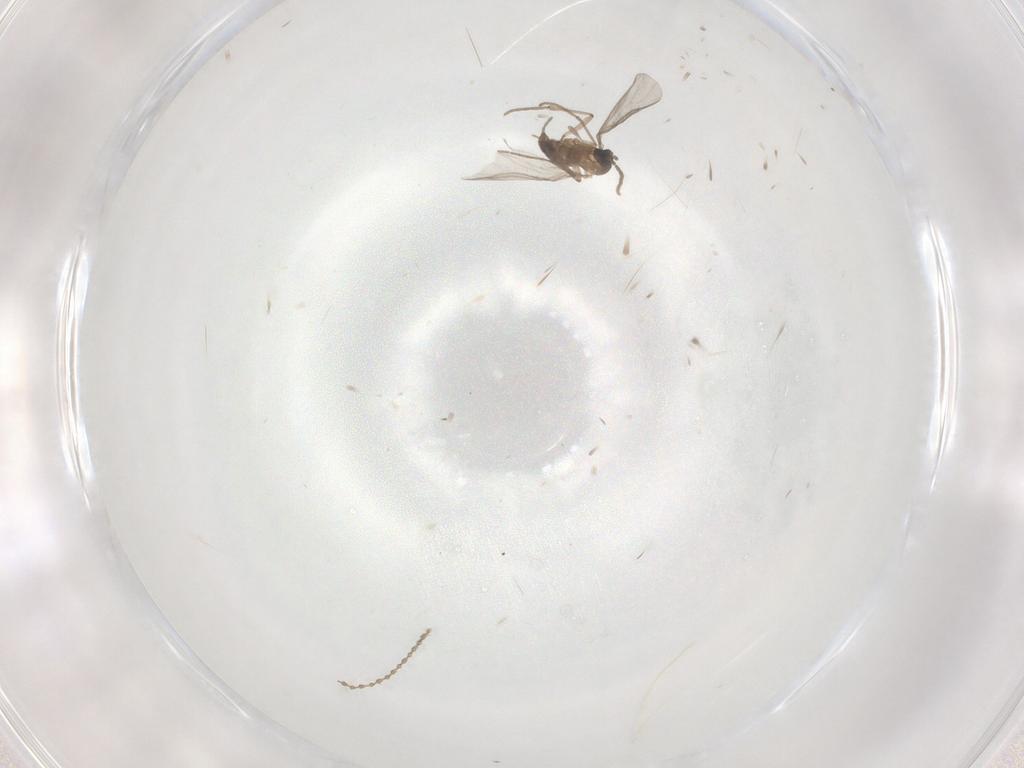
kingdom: Animalia
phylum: Arthropoda
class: Insecta
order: Diptera
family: Sciaridae
